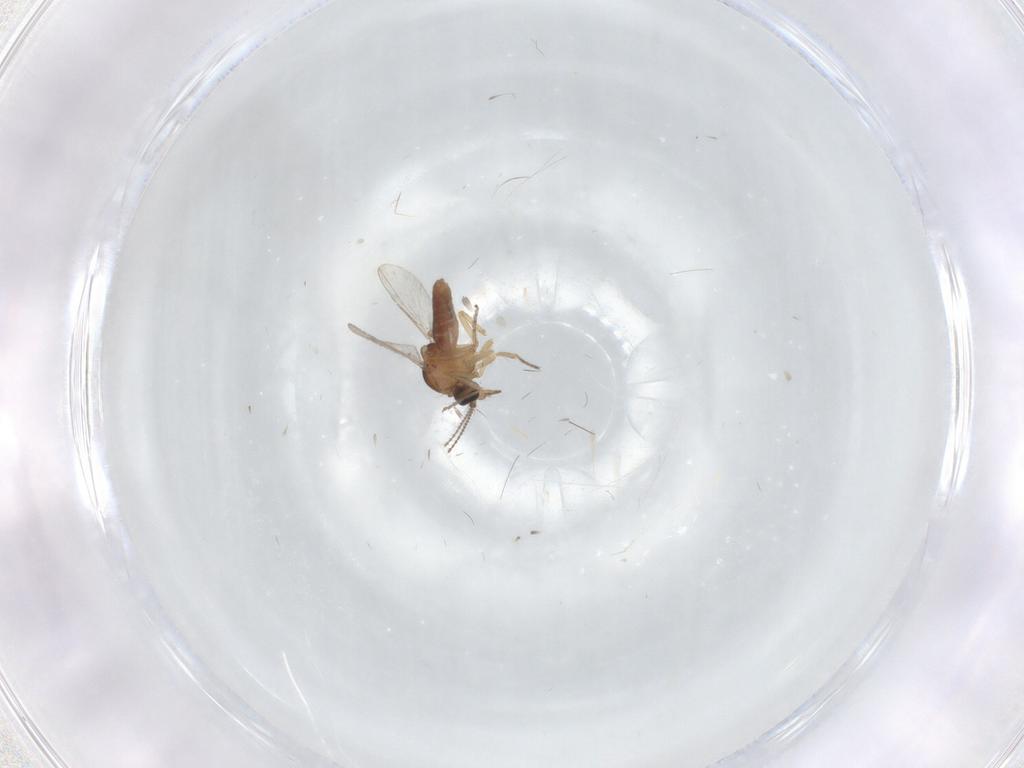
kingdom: Animalia
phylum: Arthropoda
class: Insecta
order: Diptera
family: Ceratopogonidae
